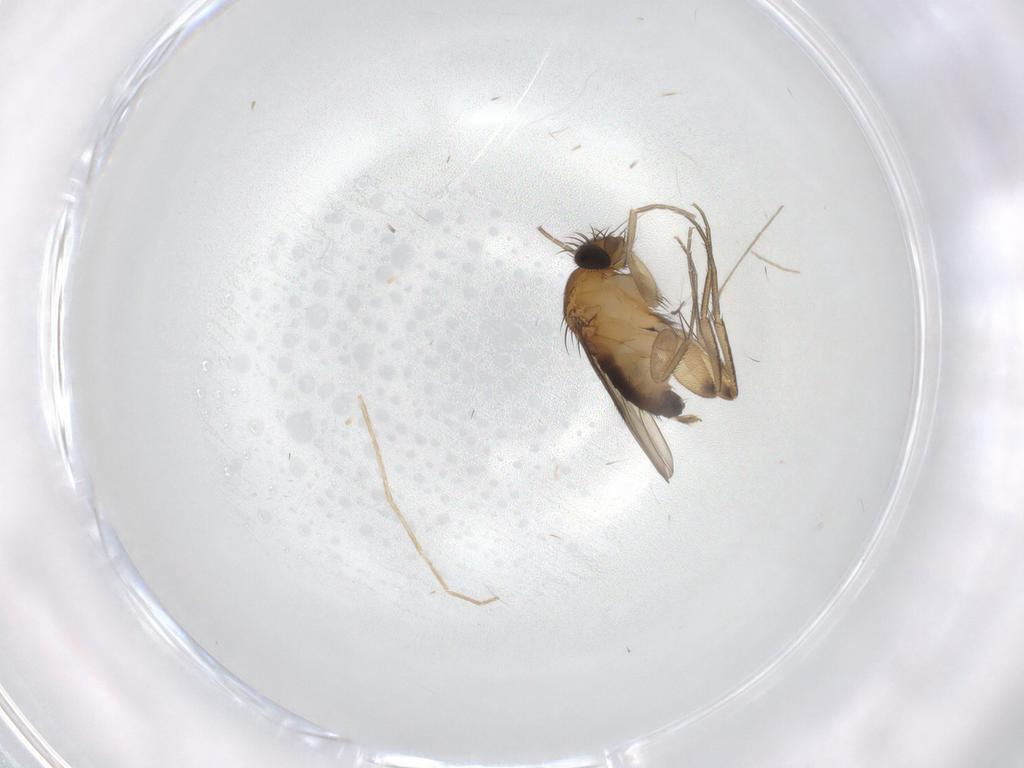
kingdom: Animalia
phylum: Arthropoda
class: Insecta
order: Diptera
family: Phoridae
